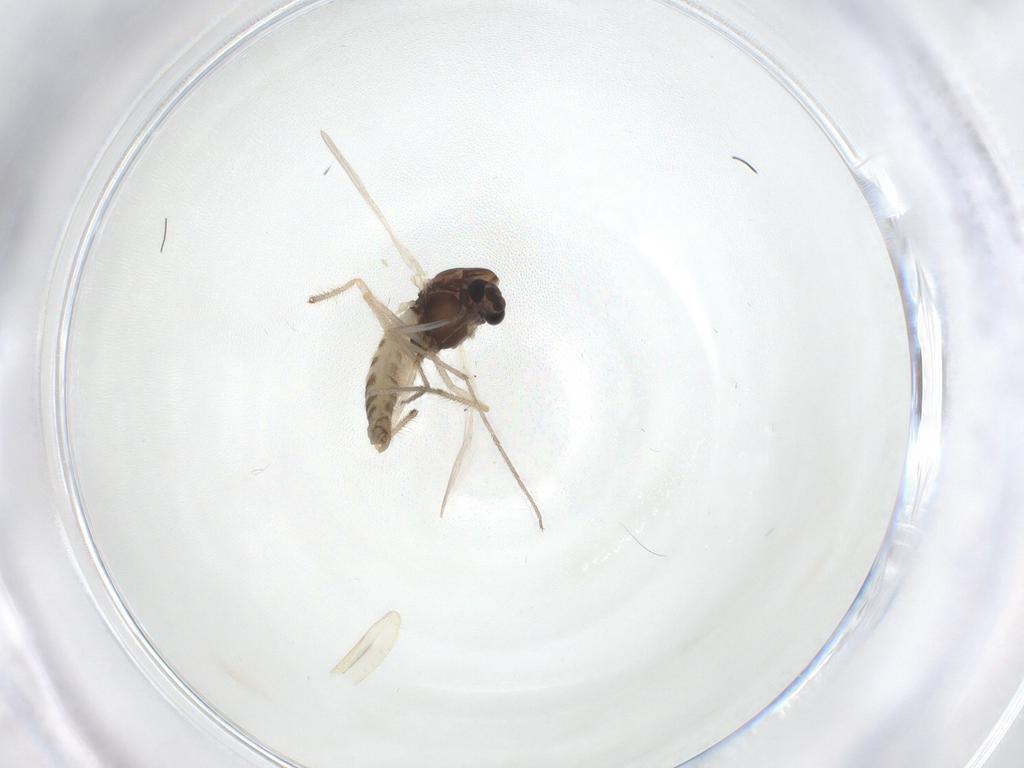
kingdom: Animalia
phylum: Arthropoda
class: Insecta
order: Diptera
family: Chironomidae
